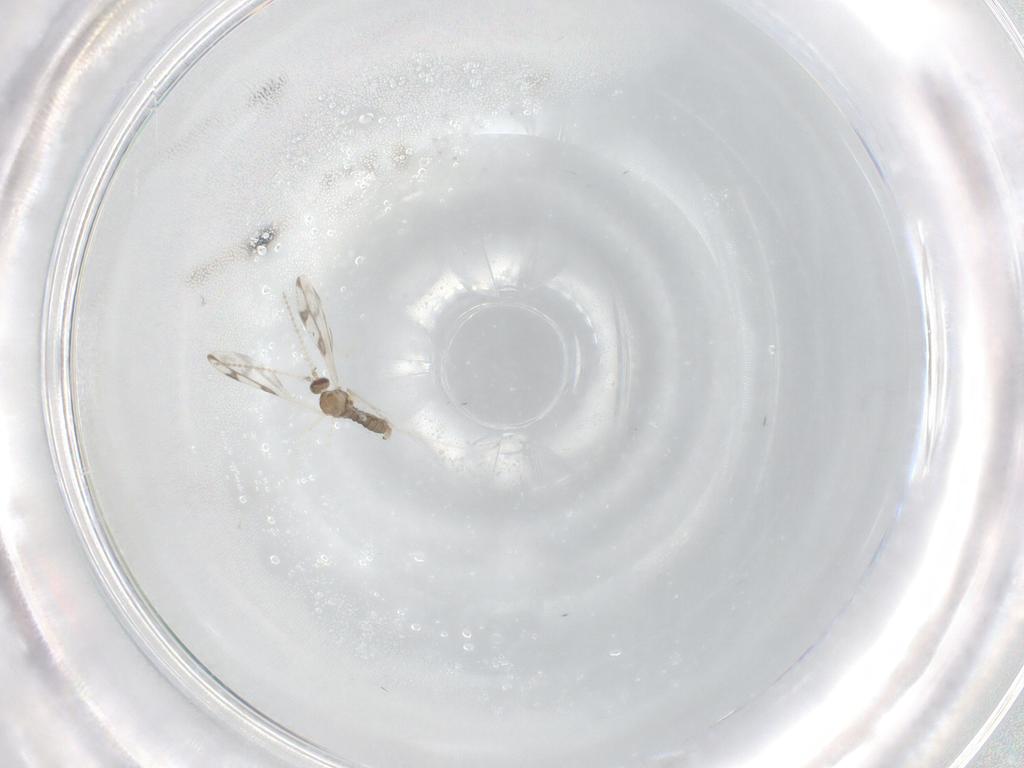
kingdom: Animalia
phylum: Arthropoda
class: Insecta
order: Diptera
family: Cecidomyiidae
